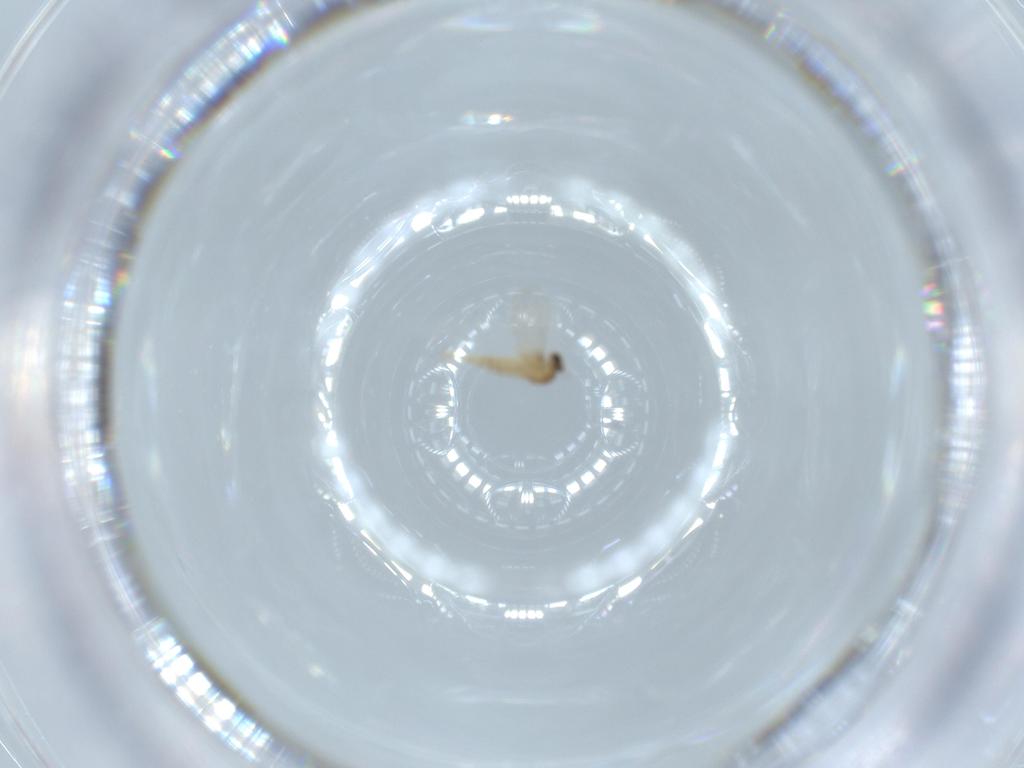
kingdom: Animalia
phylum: Arthropoda
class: Insecta
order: Diptera
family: Cecidomyiidae
